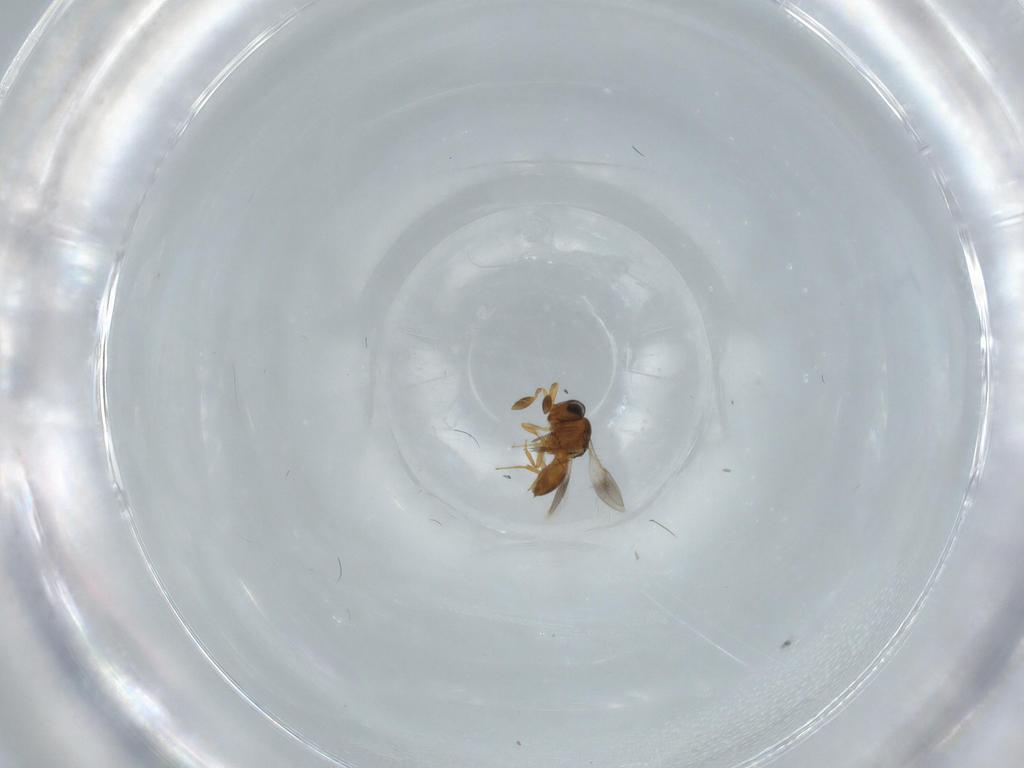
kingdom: Animalia
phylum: Arthropoda
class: Insecta
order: Hymenoptera
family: Scelionidae
